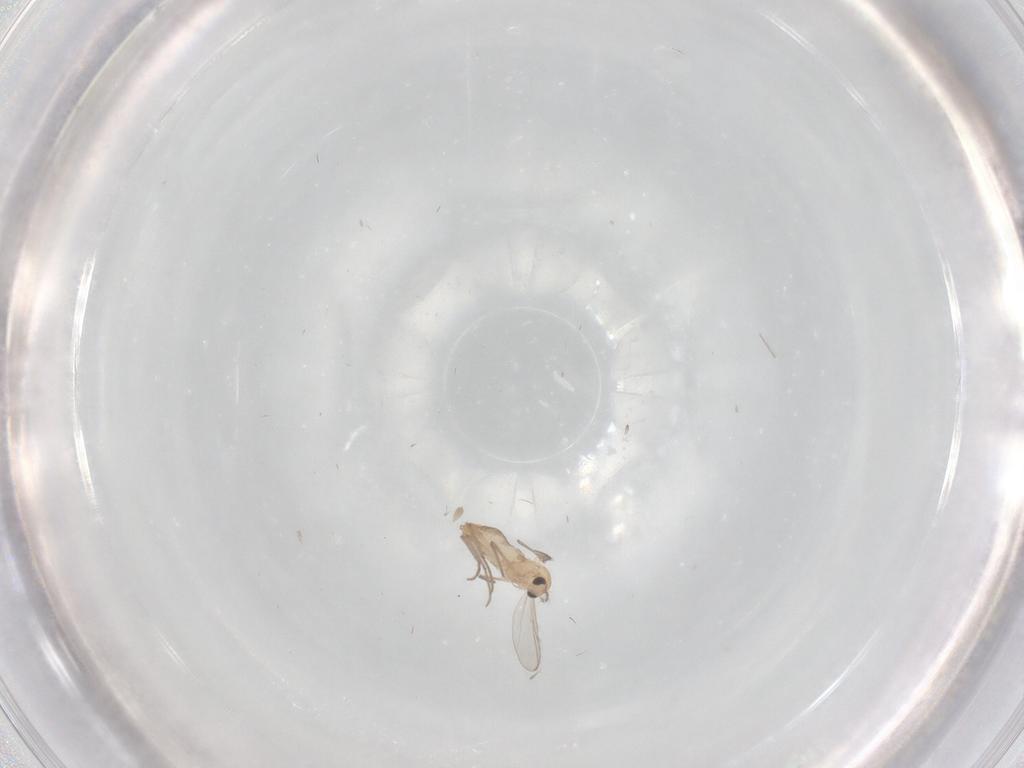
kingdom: Animalia
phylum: Arthropoda
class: Insecta
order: Diptera
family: Chironomidae
